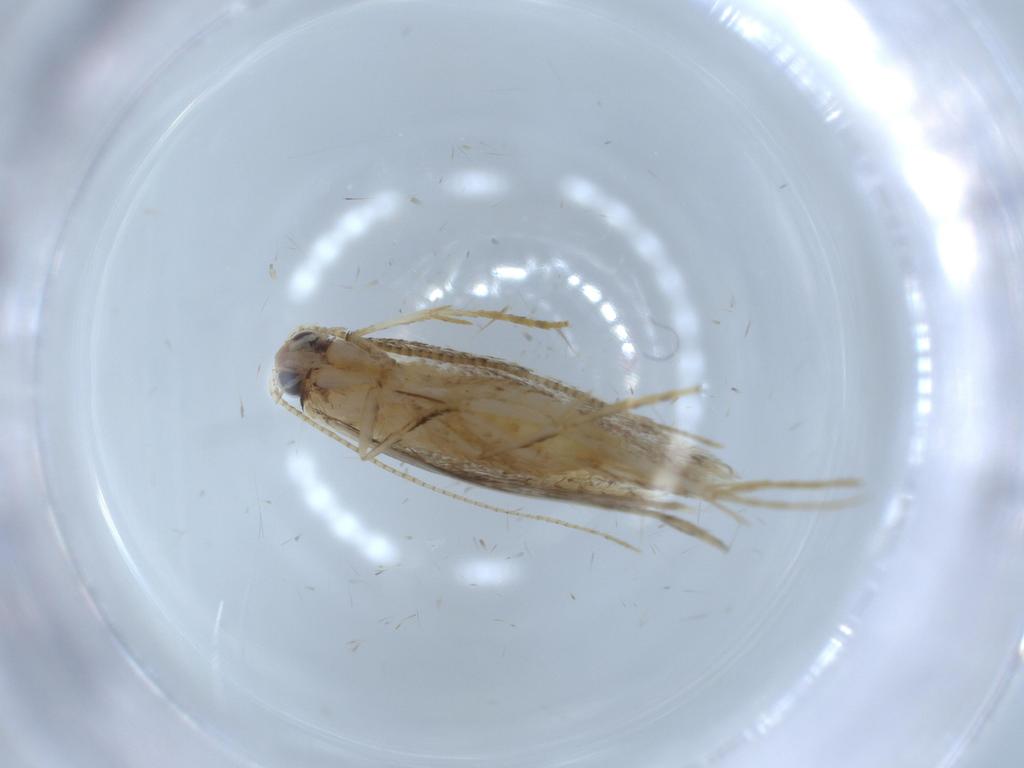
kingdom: Animalia
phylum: Arthropoda
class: Insecta
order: Lepidoptera
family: Tineidae
